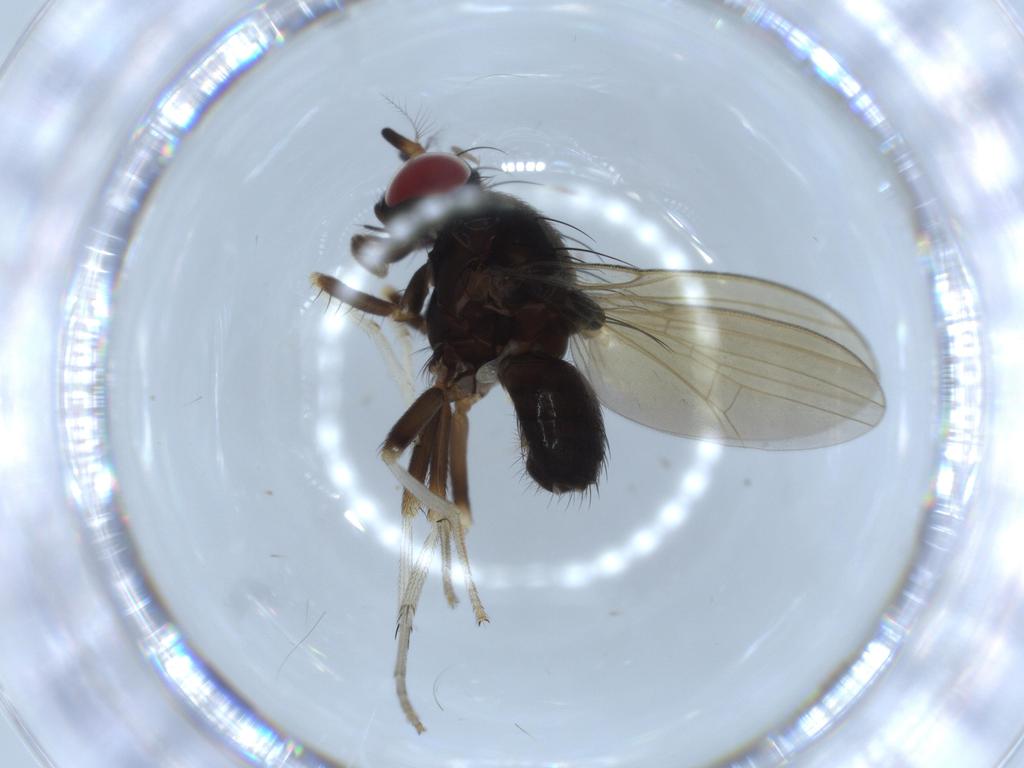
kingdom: Animalia
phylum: Arthropoda
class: Insecta
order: Diptera
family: Lauxaniidae
